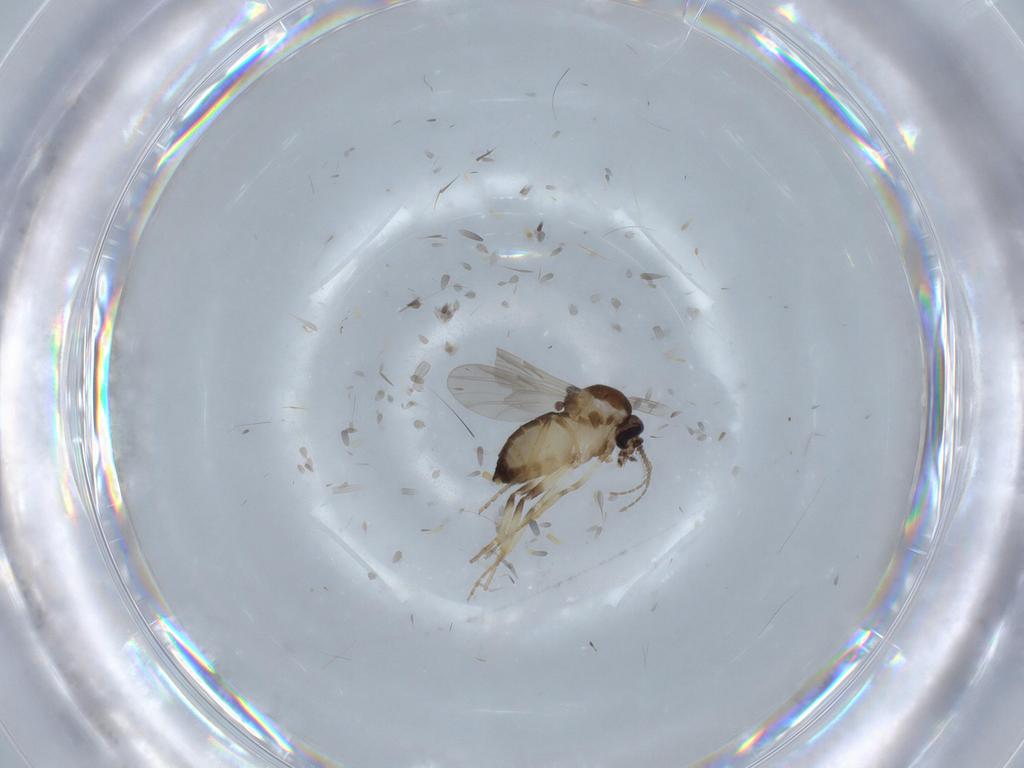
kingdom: Animalia
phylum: Arthropoda
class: Insecta
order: Diptera
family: Ceratopogonidae
